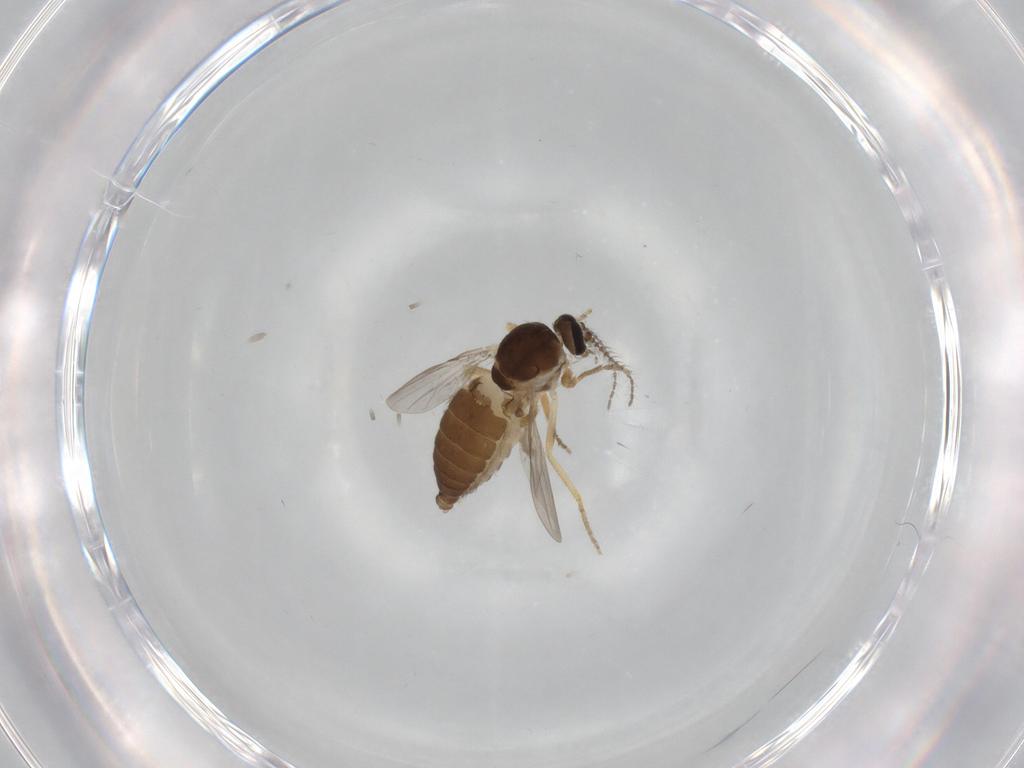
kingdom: Animalia
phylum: Arthropoda
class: Insecta
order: Diptera
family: Ceratopogonidae
